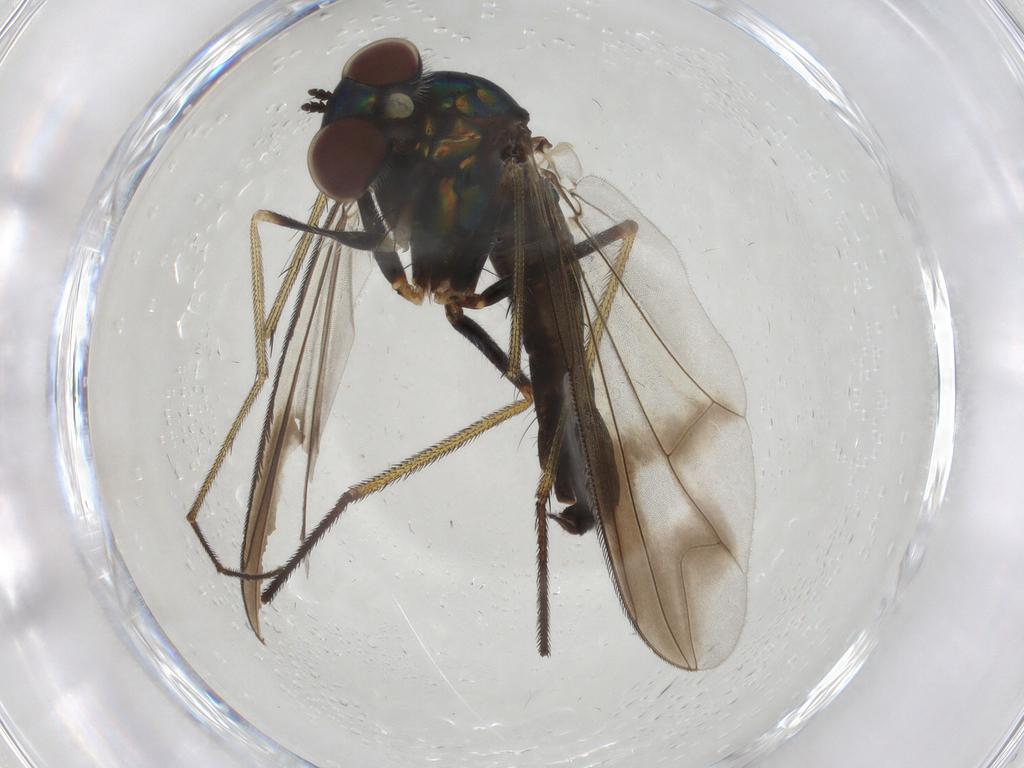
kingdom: Animalia
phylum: Arthropoda
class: Insecta
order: Diptera
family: Dolichopodidae
